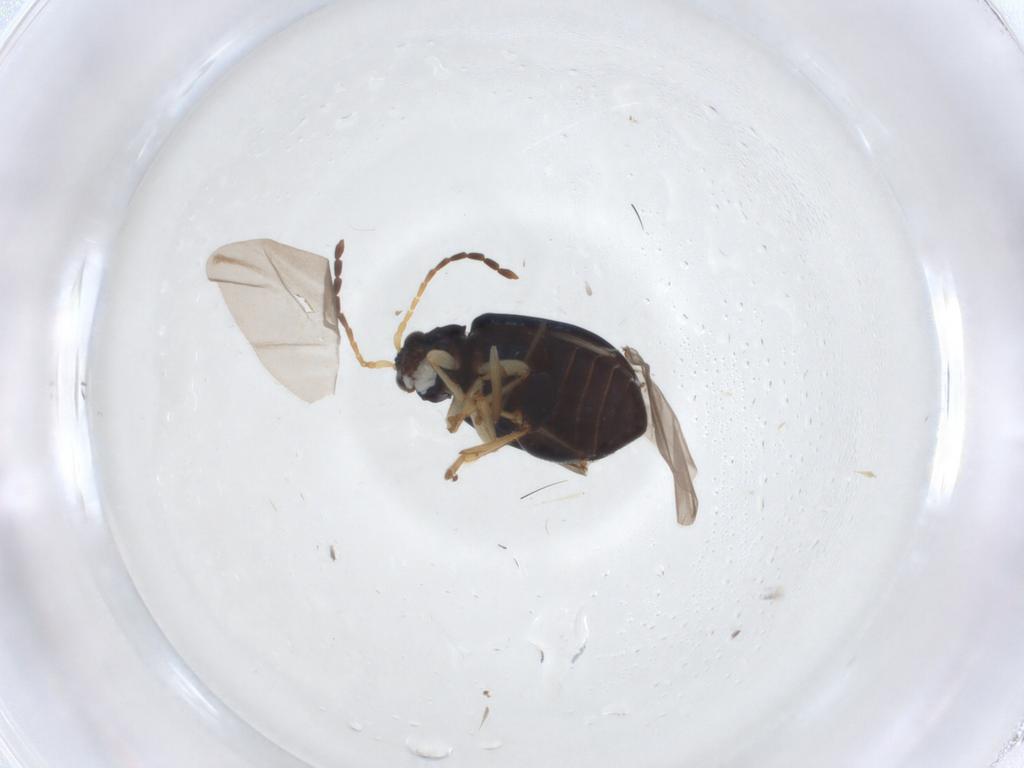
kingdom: Animalia
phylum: Arthropoda
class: Insecta
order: Coleoptera
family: Chrysomelidae
